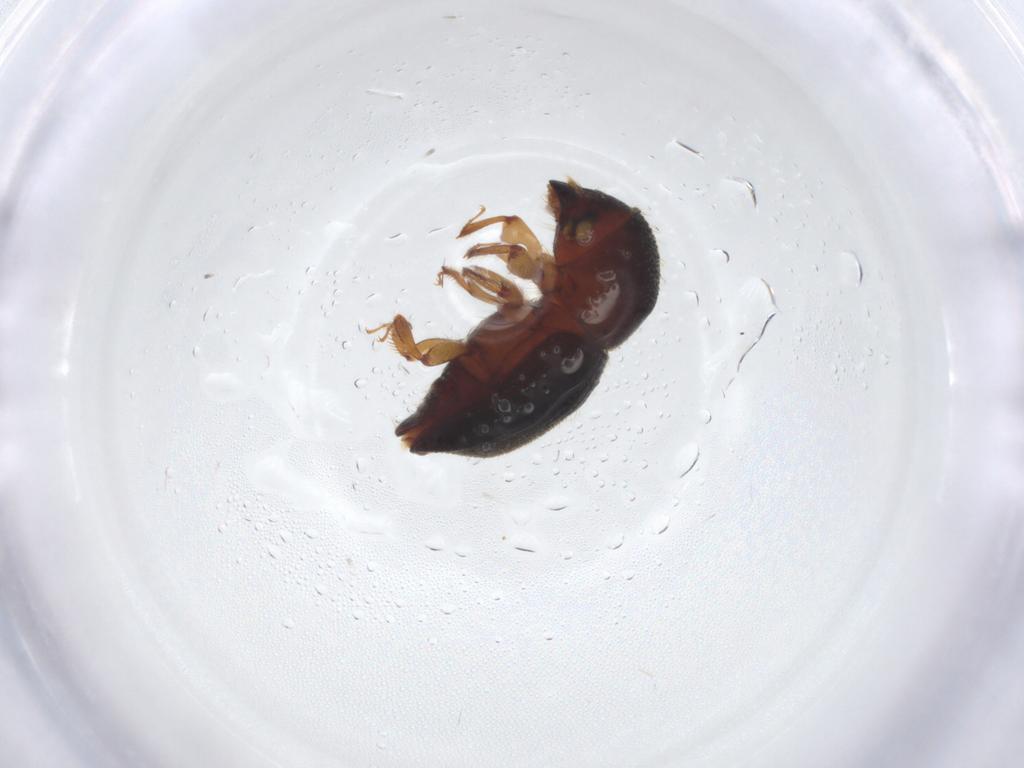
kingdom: Animalia
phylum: Arthropoda
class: Insecta
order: Coleoptera
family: Curculionidae
